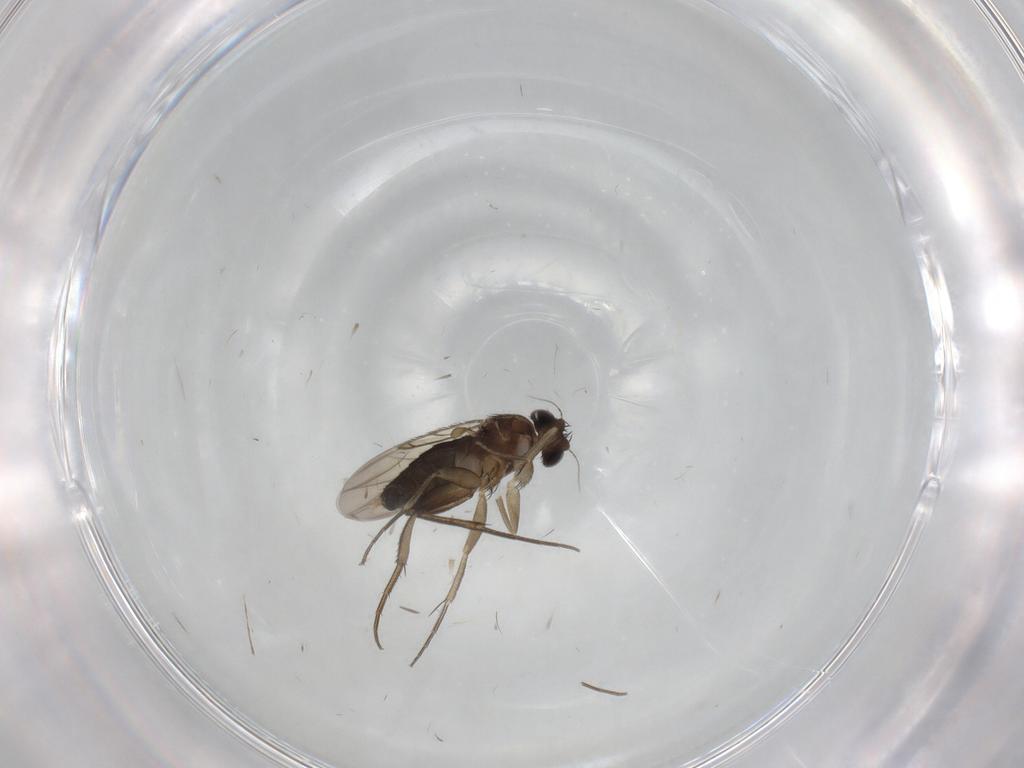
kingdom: Animalia
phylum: Arthropoda
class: Insecta
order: Diptera
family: Phoridae
